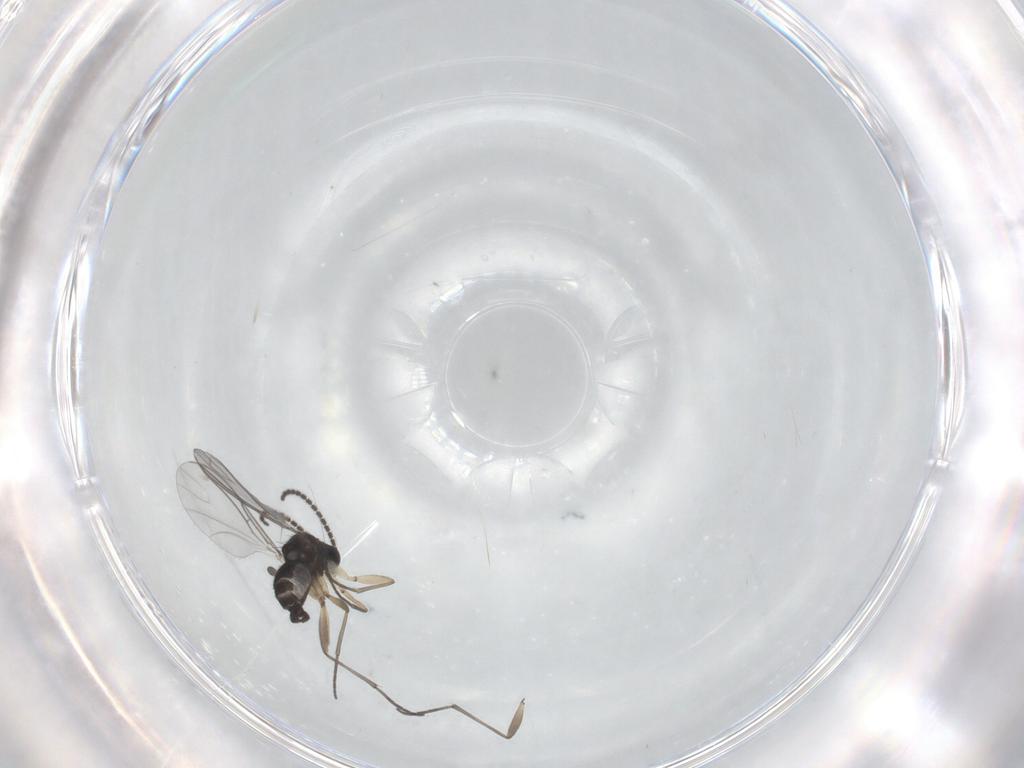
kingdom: Animalia
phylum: Arthropoda
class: Insecta
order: Diptera
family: Sciaridae
